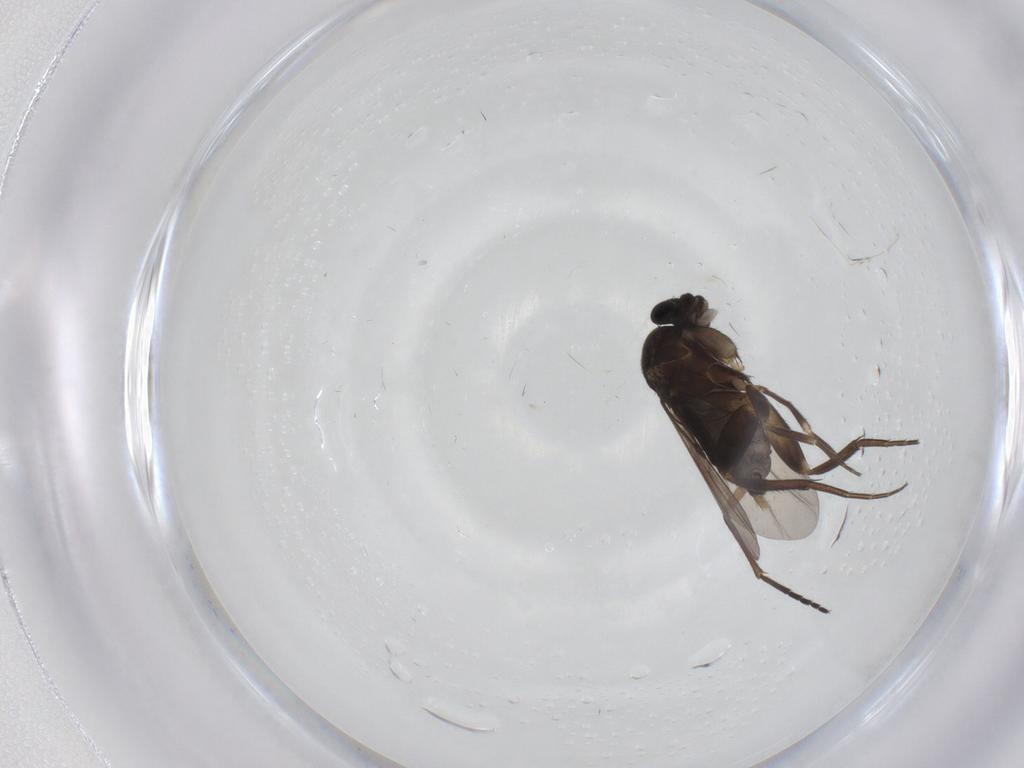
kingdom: Animalia
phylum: Arthropoda
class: Insecta
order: Diptera
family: Phoridae
